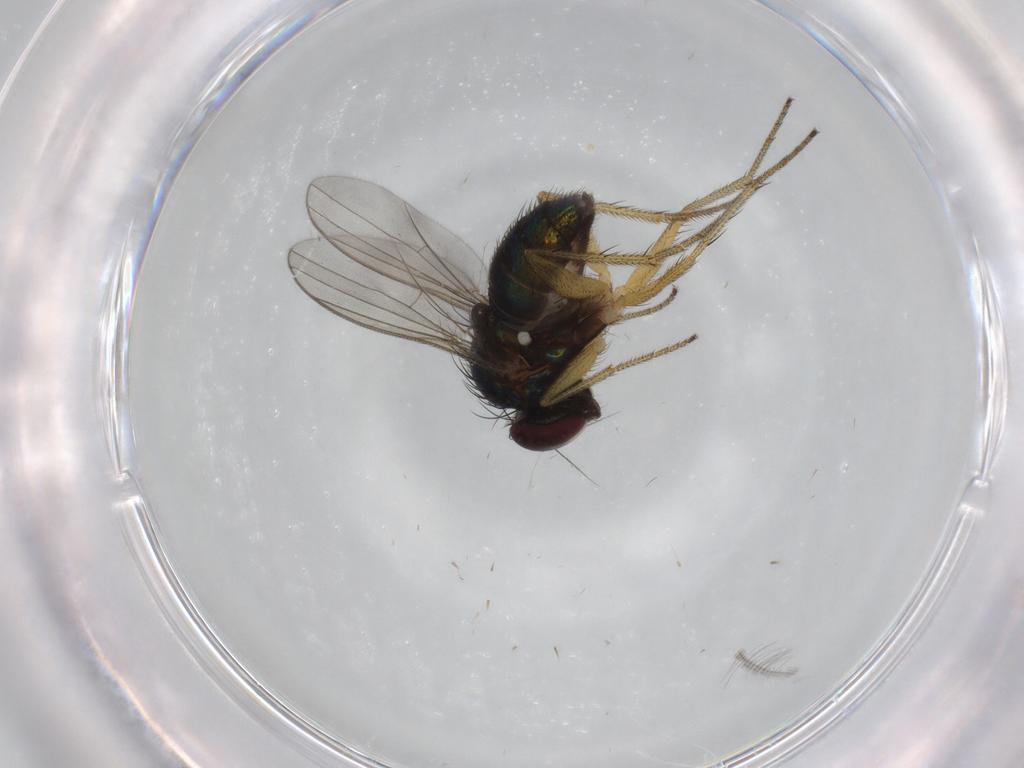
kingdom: Animalia
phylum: Arthropoda
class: Insecta
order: Diptera
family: Dolichopodidae
